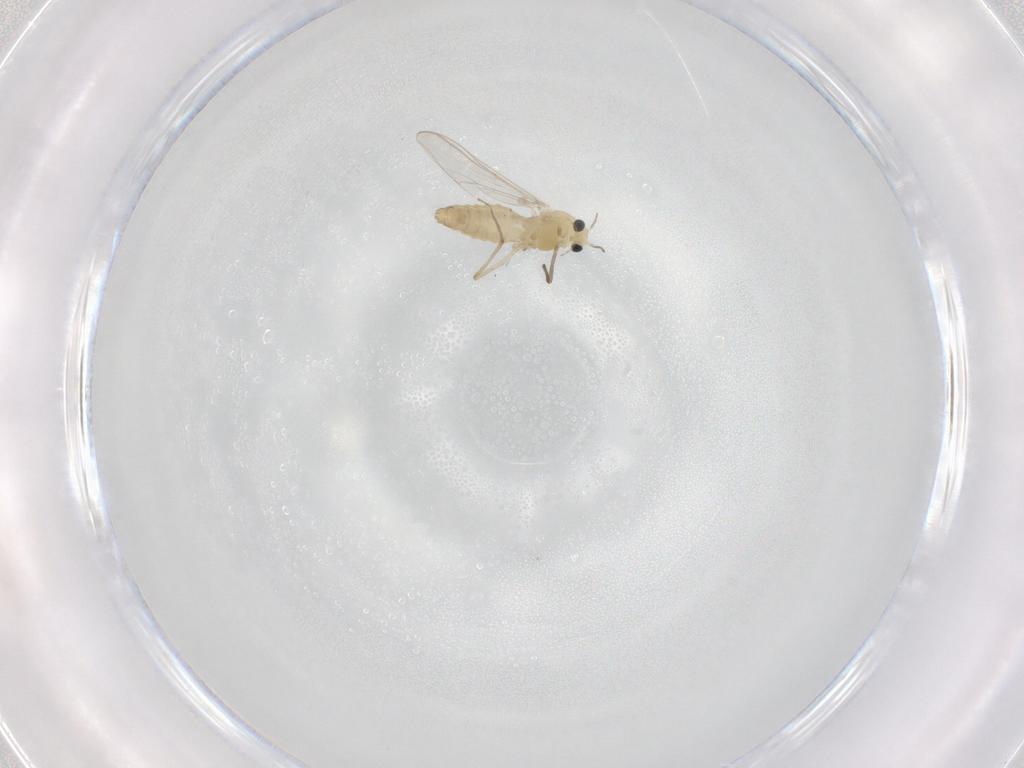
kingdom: Animalia
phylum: Arthropoda
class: Insecta
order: Diptera
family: Chironomidae
